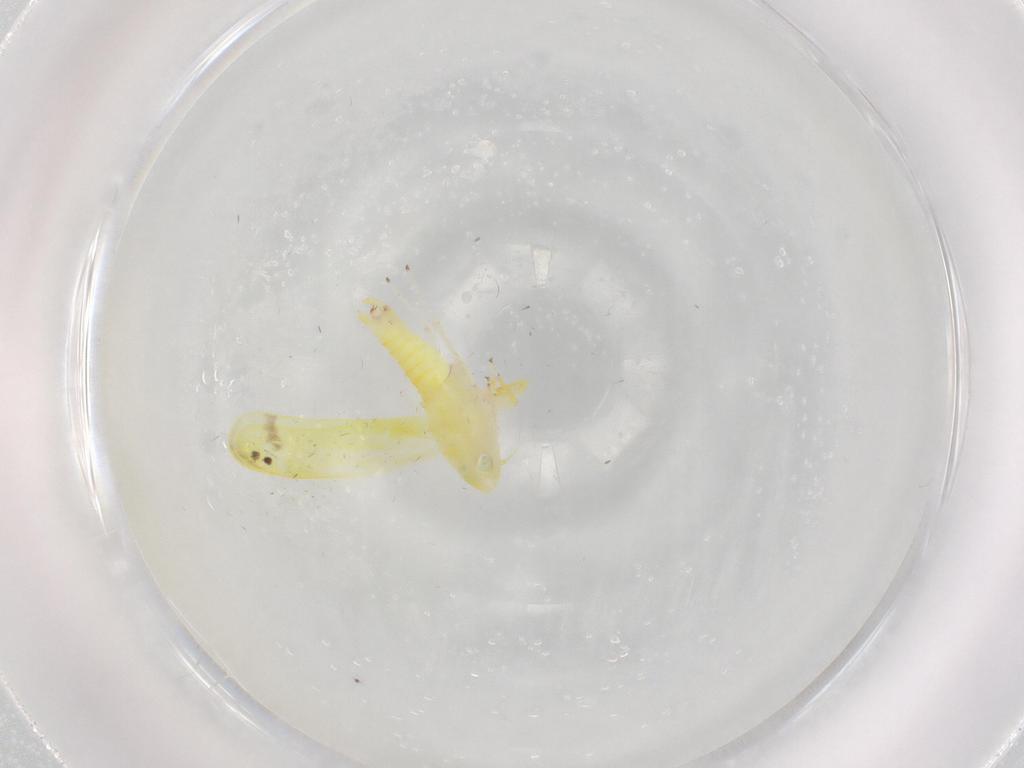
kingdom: Animalia
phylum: Arthropoda
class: Insecta
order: Hemiptera
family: Cicadellidae
